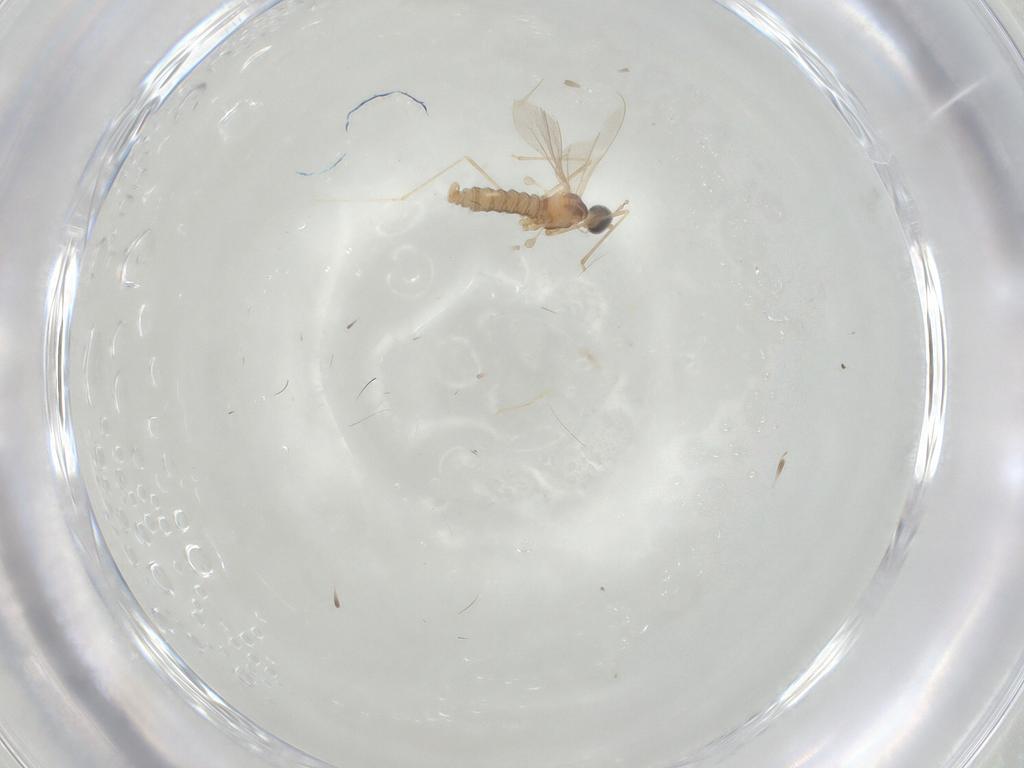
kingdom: Animalia
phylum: Arthropoda
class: Insecta
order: Diptera
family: Cecidomyiidae
